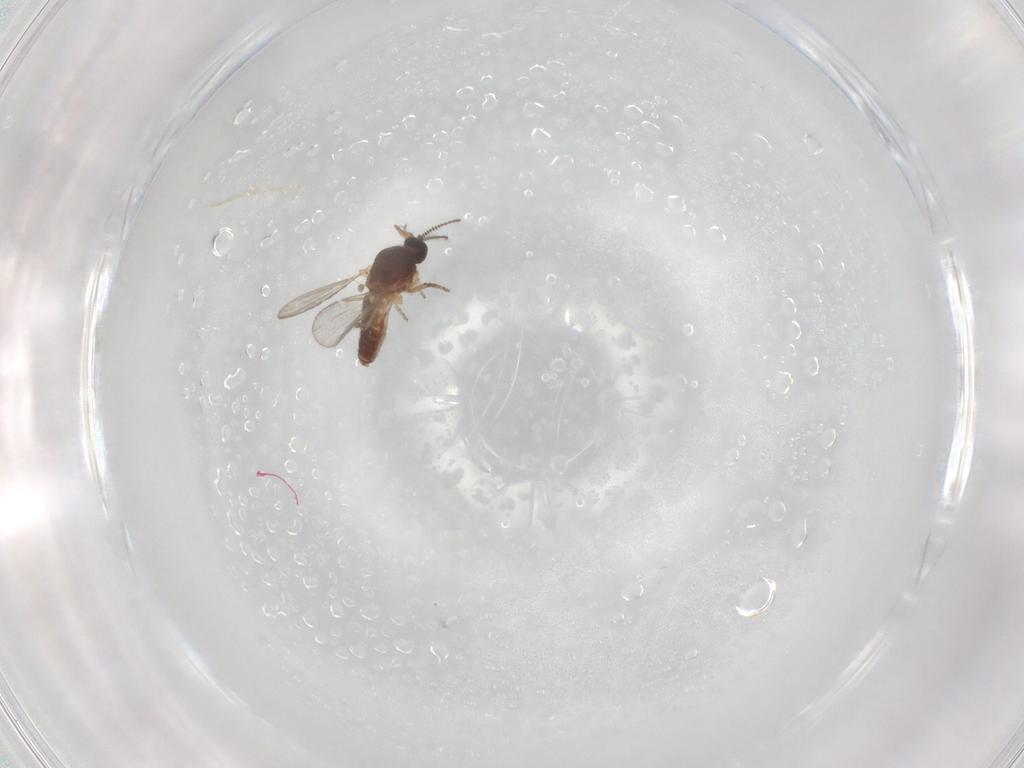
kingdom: Animalia
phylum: Arthropoda
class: Insecta
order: Diptera
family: Ceratopogonidae
